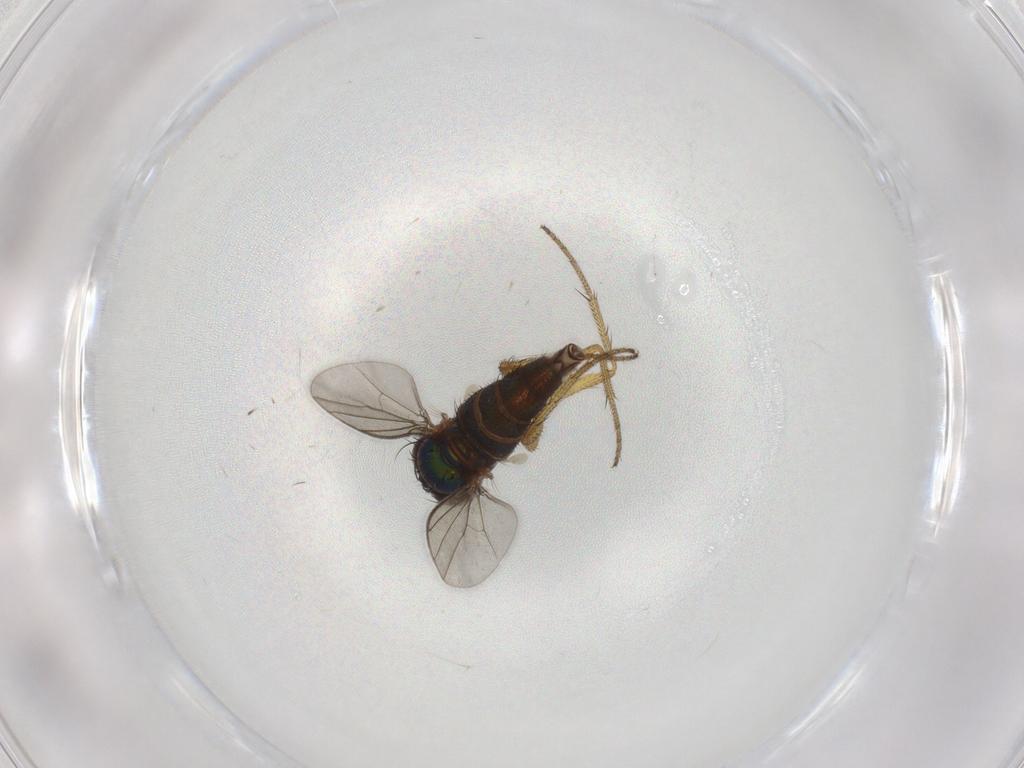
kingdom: Animalia
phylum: Arthropoda
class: Insecta
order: Diptera
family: Dolichopodidae
